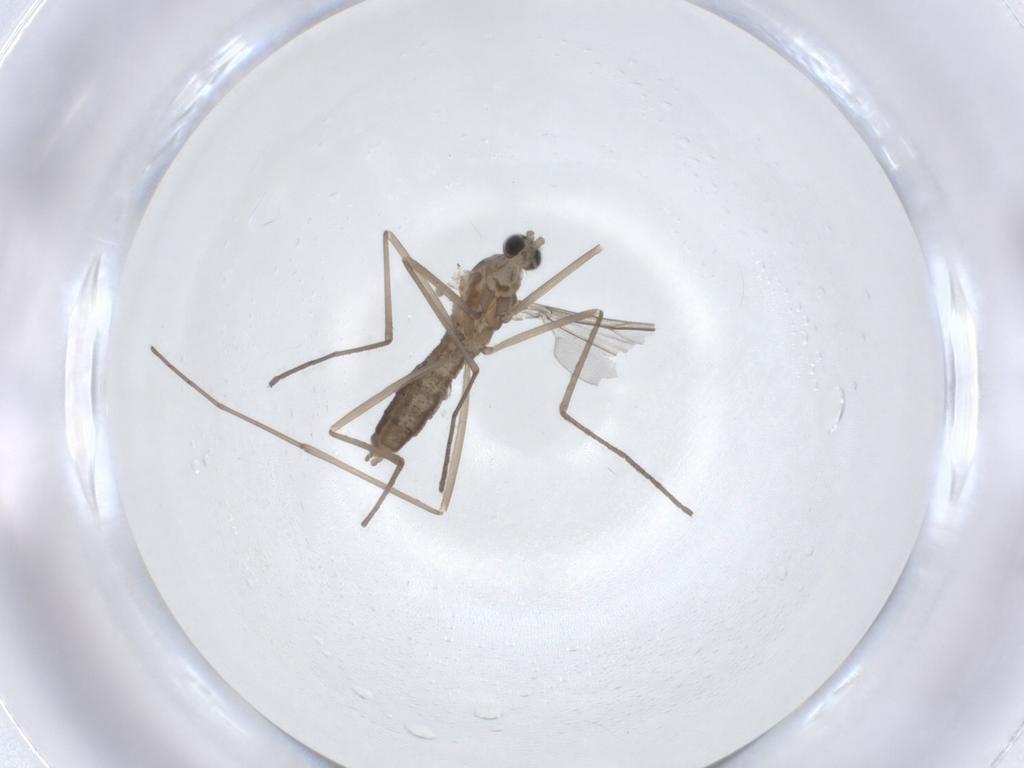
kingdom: Animalia
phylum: Arthropoda
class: Insecta
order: Diptera
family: Cecidomyiidae
